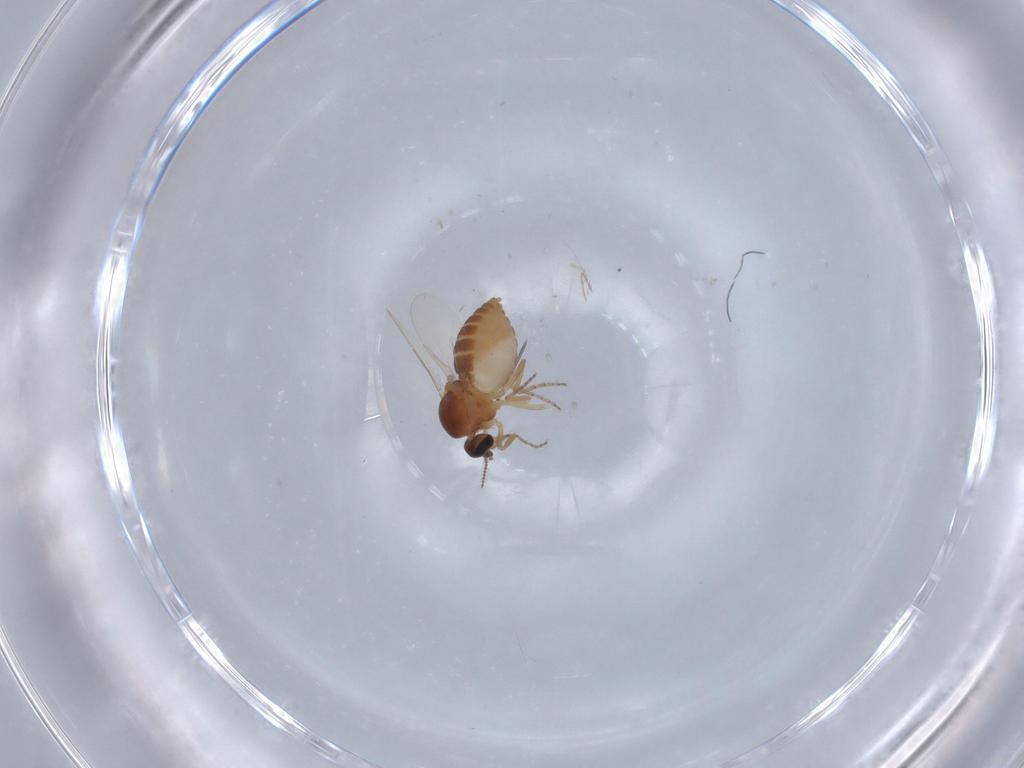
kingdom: Animalia
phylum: Arthropoda
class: Insecta
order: Diptera
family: Ceratopogonidae
